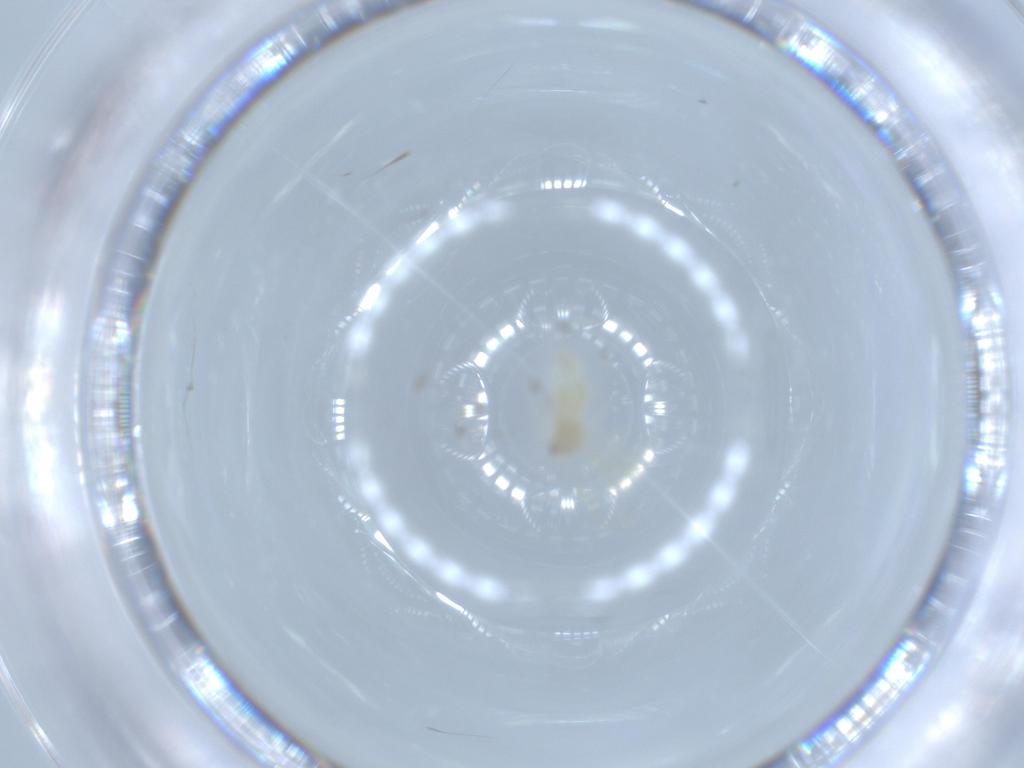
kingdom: Animalia
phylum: Arthropoda
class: Insecta
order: Hemiptera
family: Aleyrodidae
